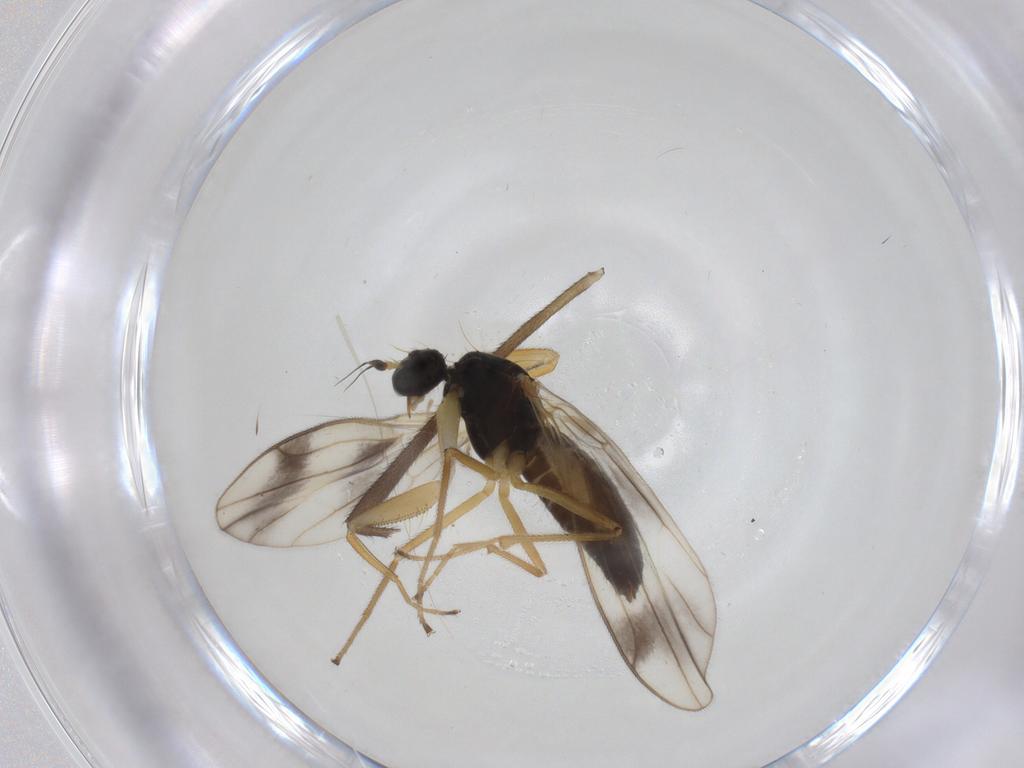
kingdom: Animalia
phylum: Arthropoda
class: Insecta
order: Diptera
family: Empididae
